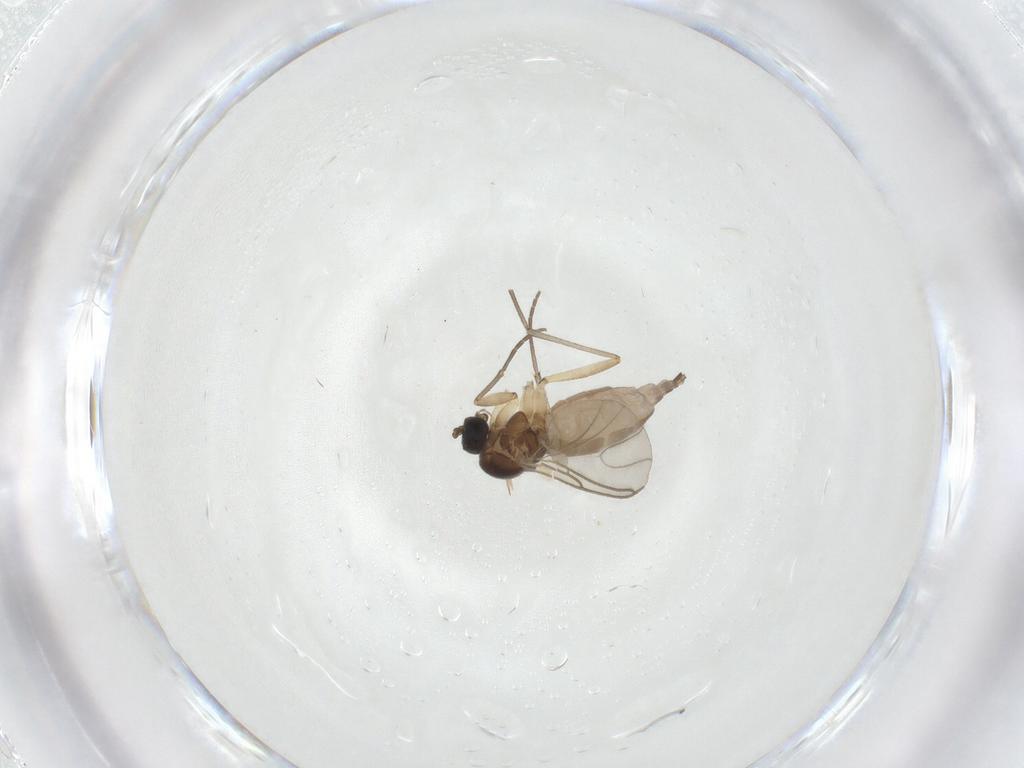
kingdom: Animalia
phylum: Arthropoda
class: Insecta
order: Diptera
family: Sciaridae
